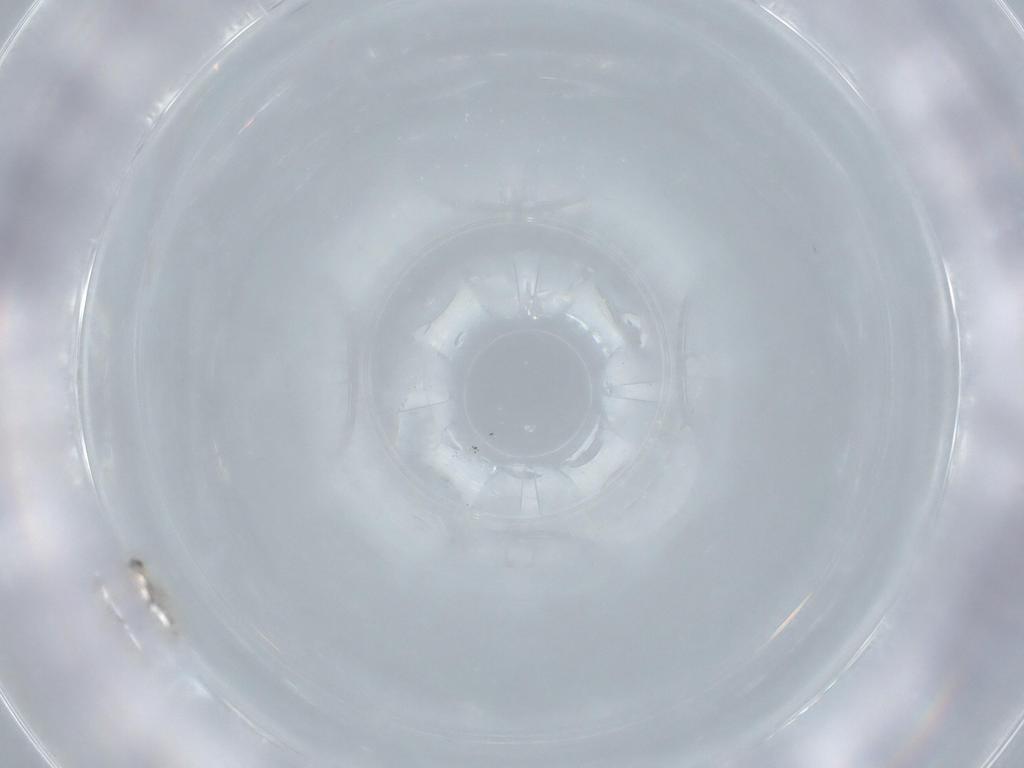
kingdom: Animalia
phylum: Arthropoda
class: Insecta
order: Hymenoptera
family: Mymaridae
